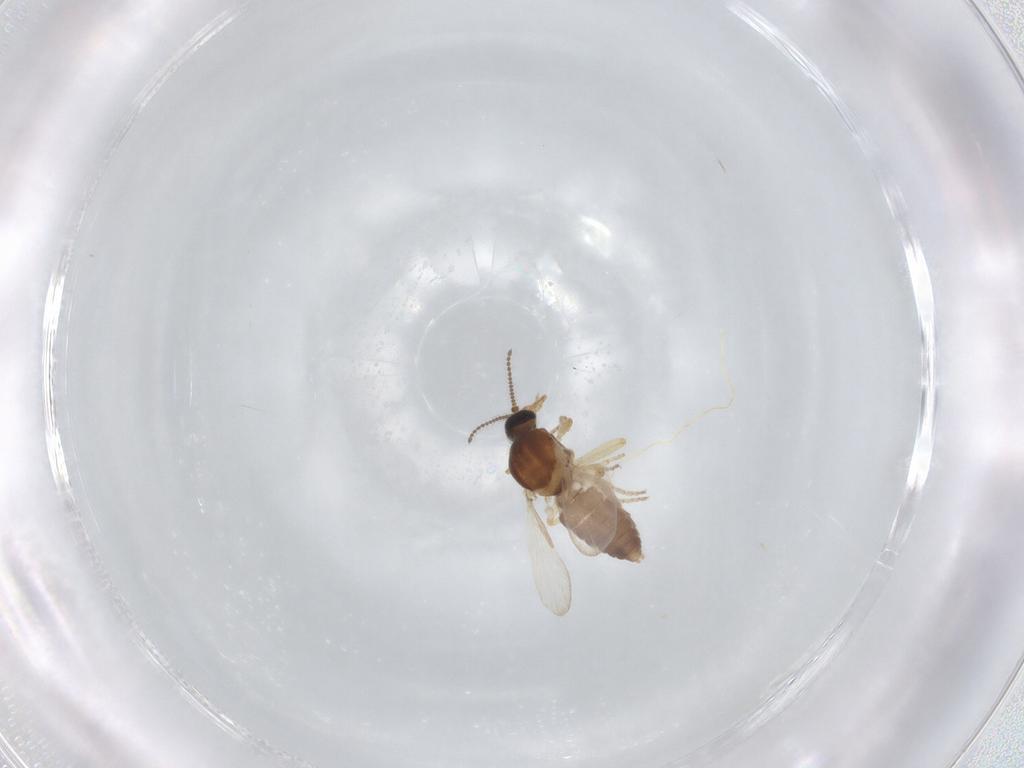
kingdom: Animalia
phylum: Arthropoda
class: Insecta
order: Diptera
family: Ceratopogonidae
